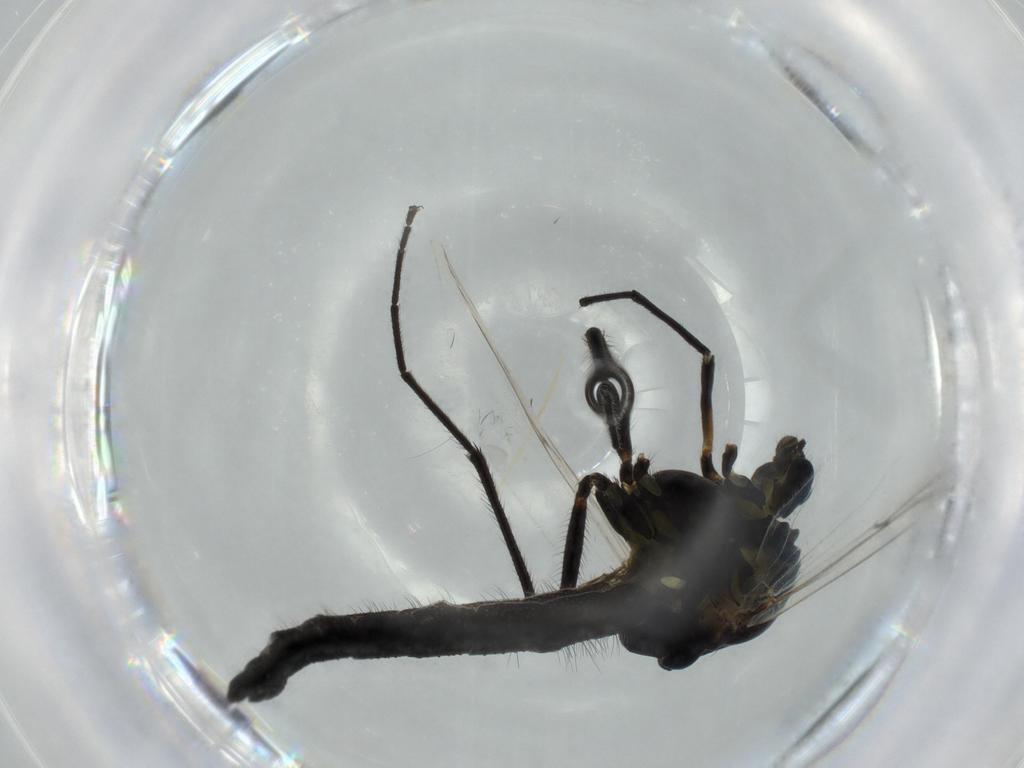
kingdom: Animalia
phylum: Arthropoda
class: Insecta
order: Diptera
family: Phoridae
